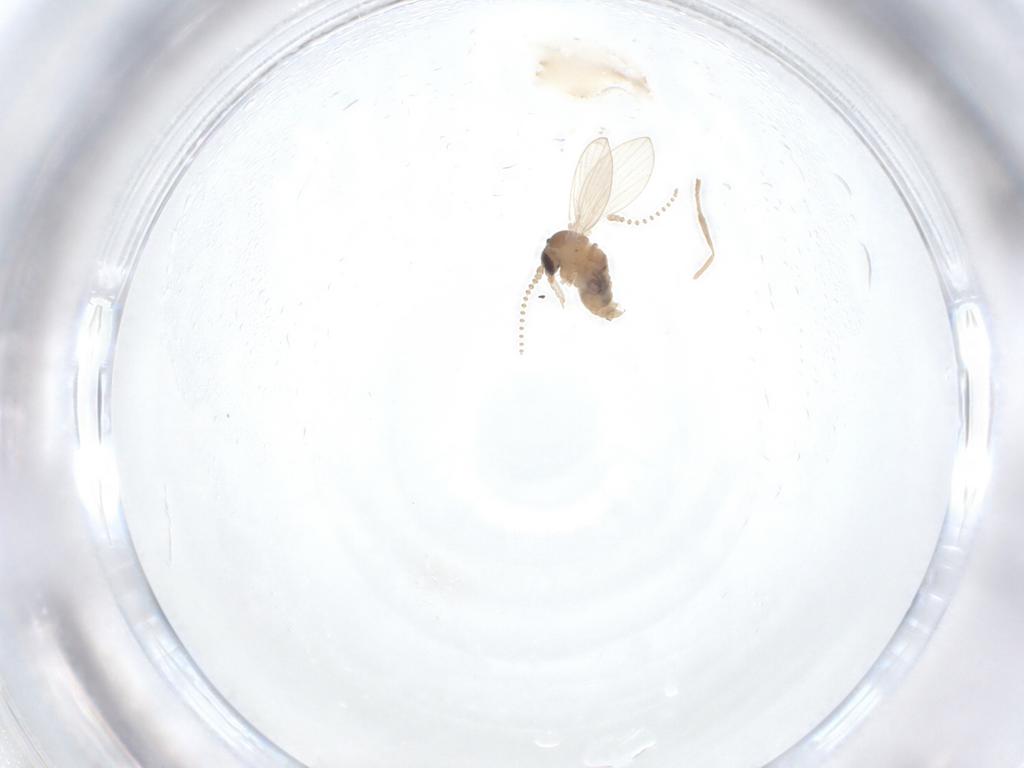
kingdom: Animalia
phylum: Arthropoda
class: Insecta
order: Diptera
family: Psychodidae
